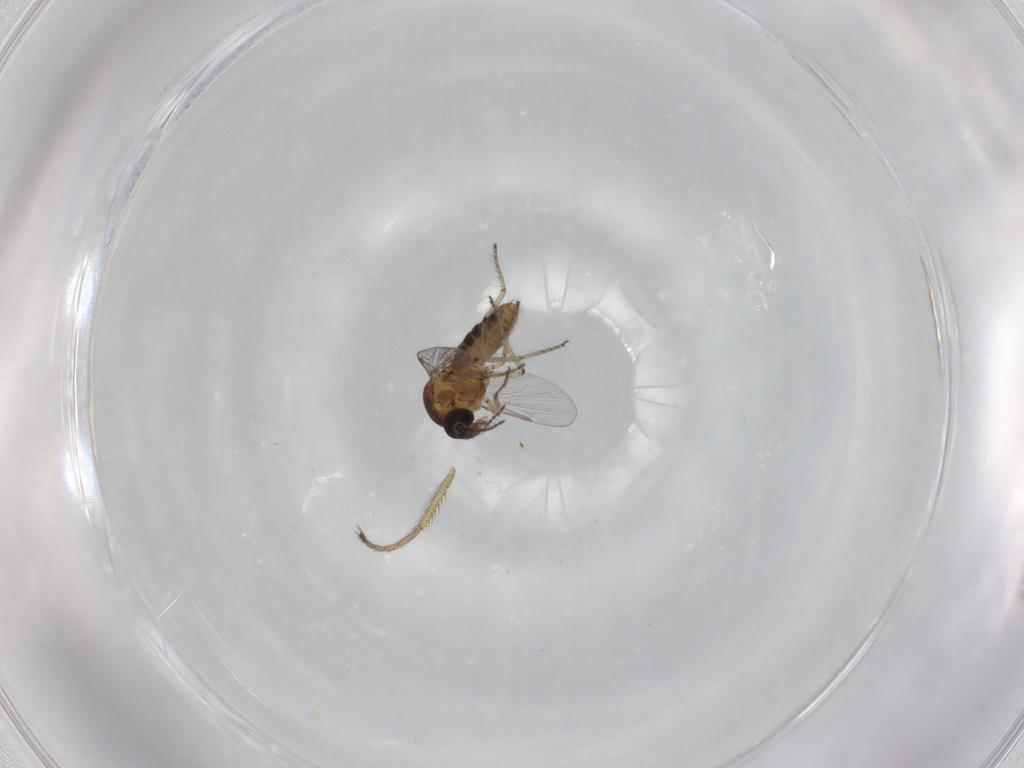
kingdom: Animalia
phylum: Arthropoda
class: Insecta
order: Diptera
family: Ceratopogonidae
